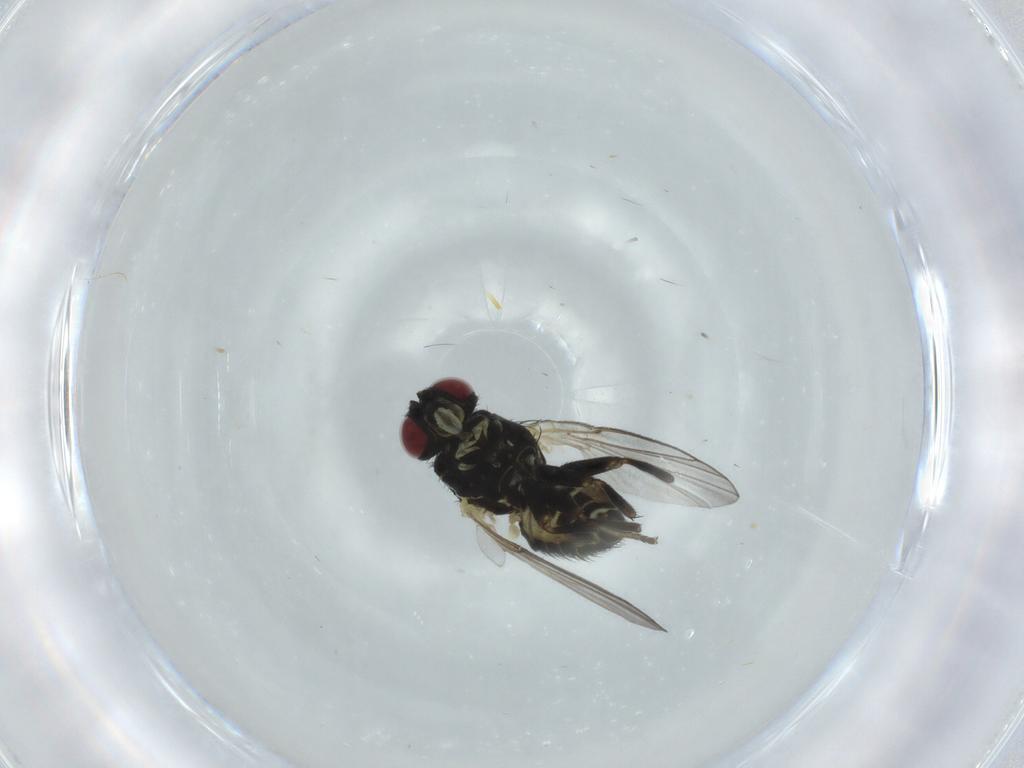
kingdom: Animalia
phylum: Arthropoda
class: Insecta
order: Diptera
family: Agromyzidae
